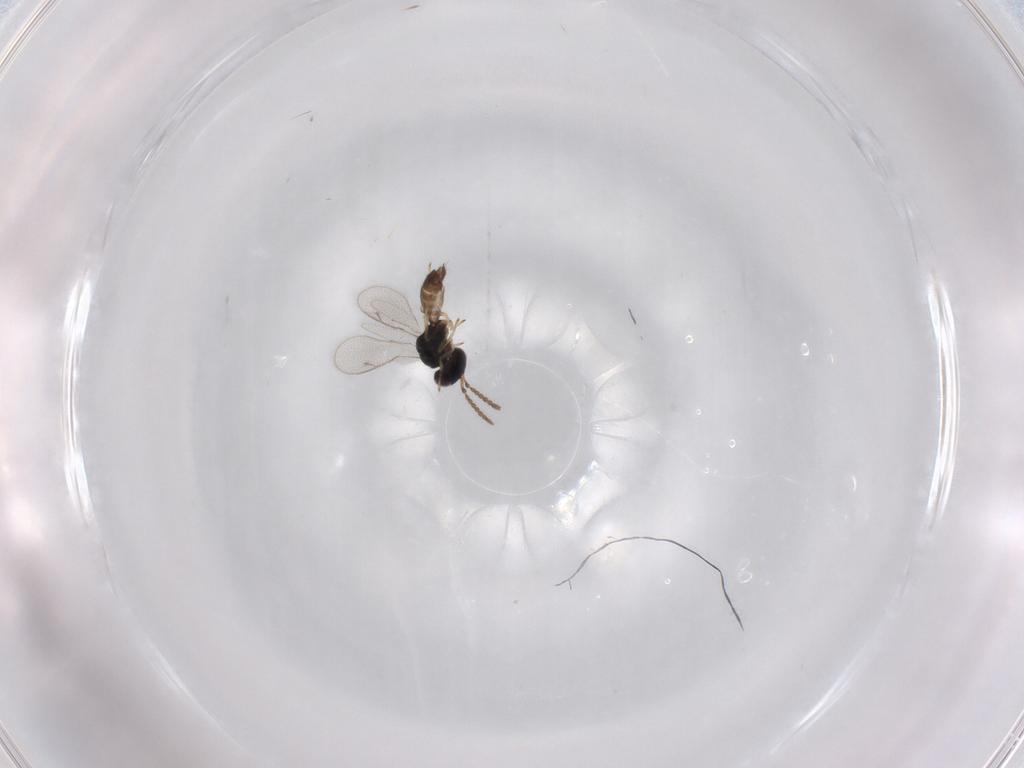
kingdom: Animalia
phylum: Arthropoda
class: Insecta
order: Hymenoptera
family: Pteromalidae
